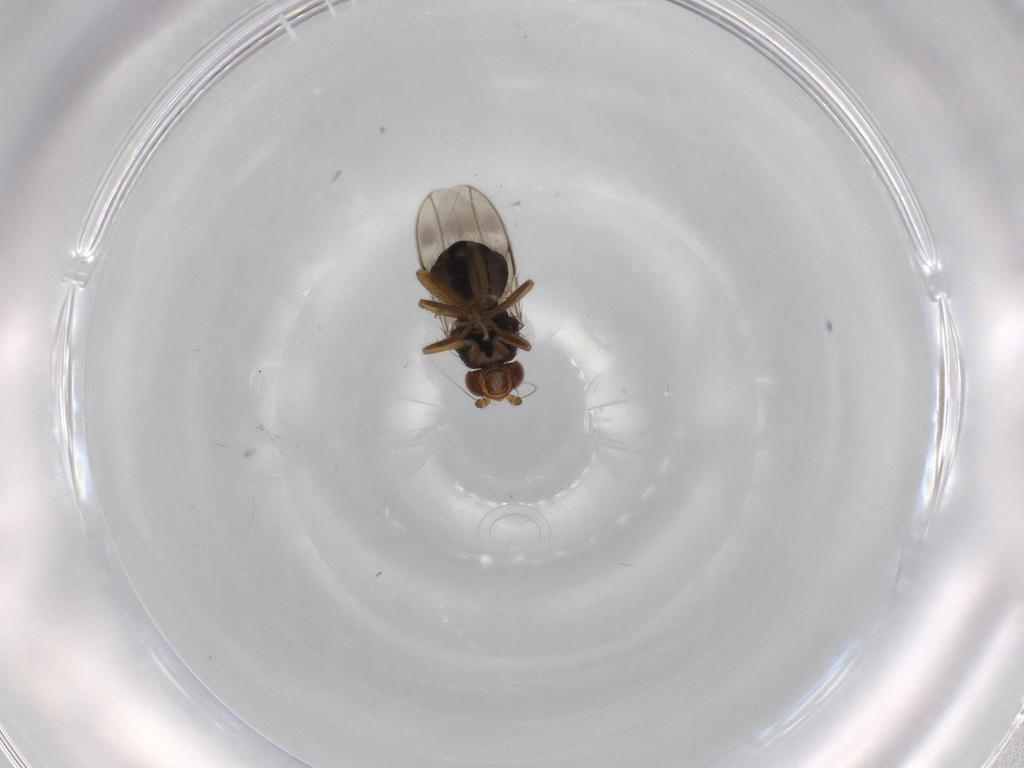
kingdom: Animalia
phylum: Arthropoda
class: Insecta
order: Diptera
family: Sphaeroceridae
